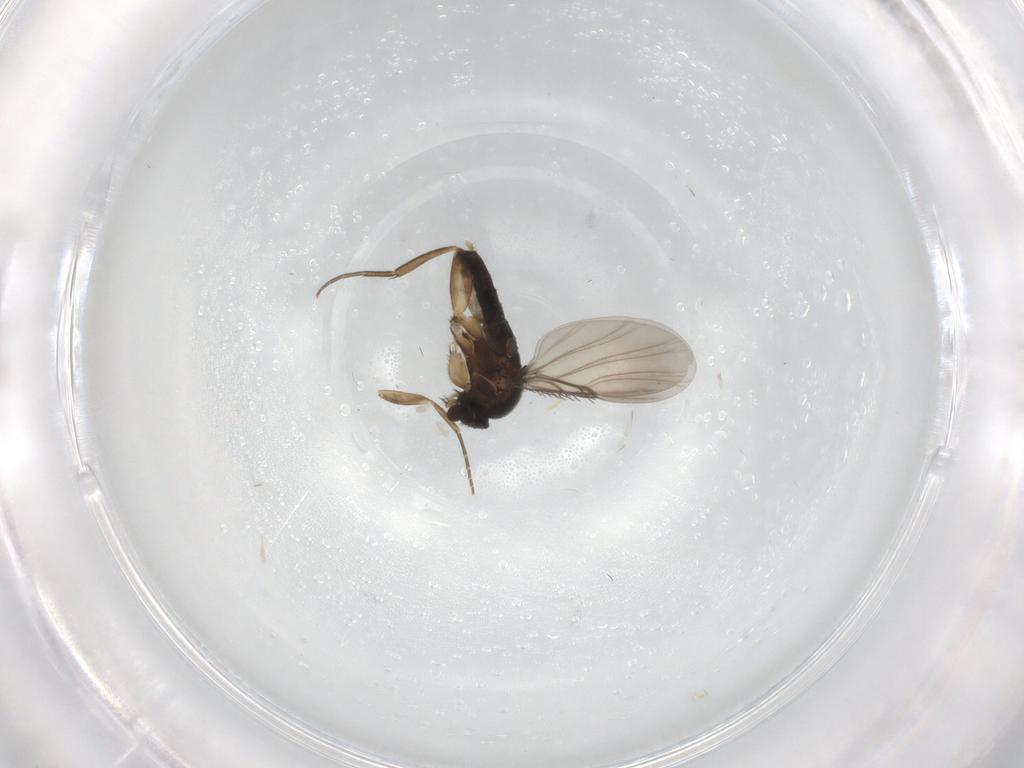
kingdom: Animalia
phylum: Arthropoda
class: Insecta
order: Diptera
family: Phoridae
